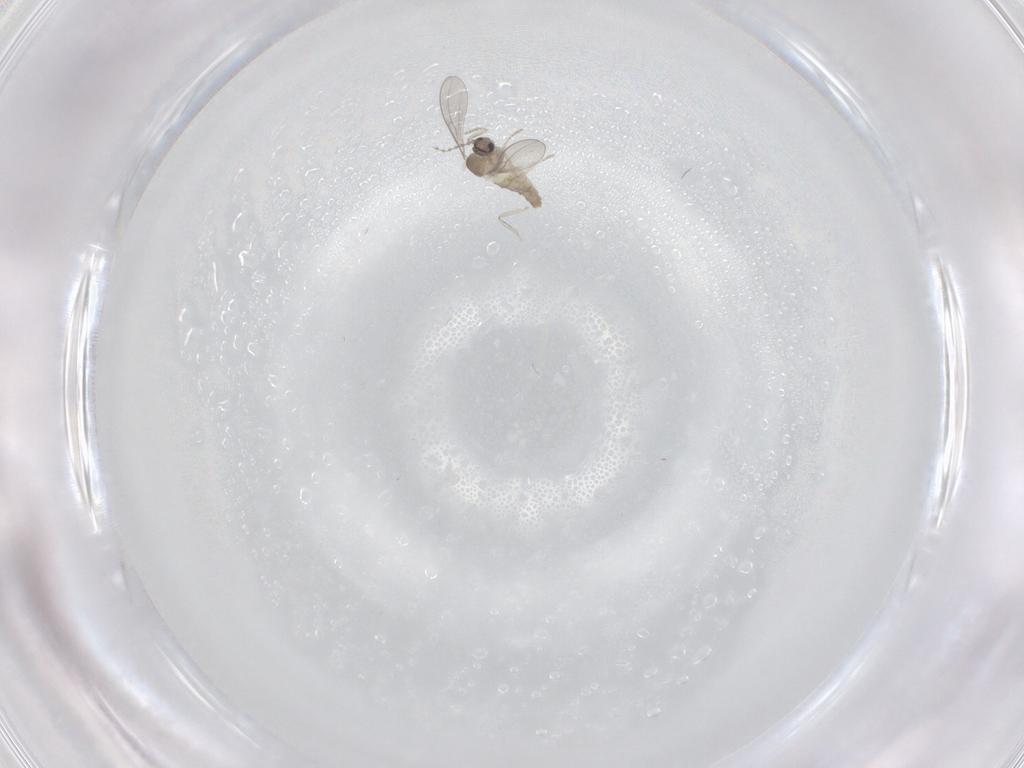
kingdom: Animalia
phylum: Arthropoda
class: Insecta
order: Diptera
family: Cecidomyiidae
